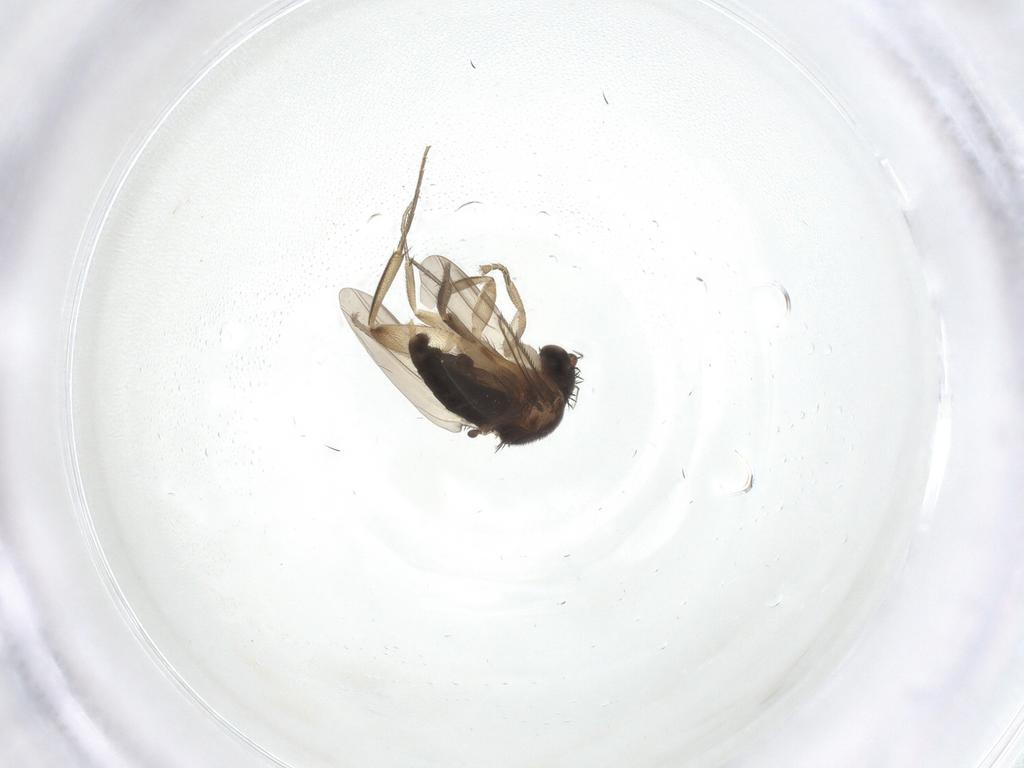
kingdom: Animalia
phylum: Arthropoda
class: Insecta
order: Diptera
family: Phoridae
